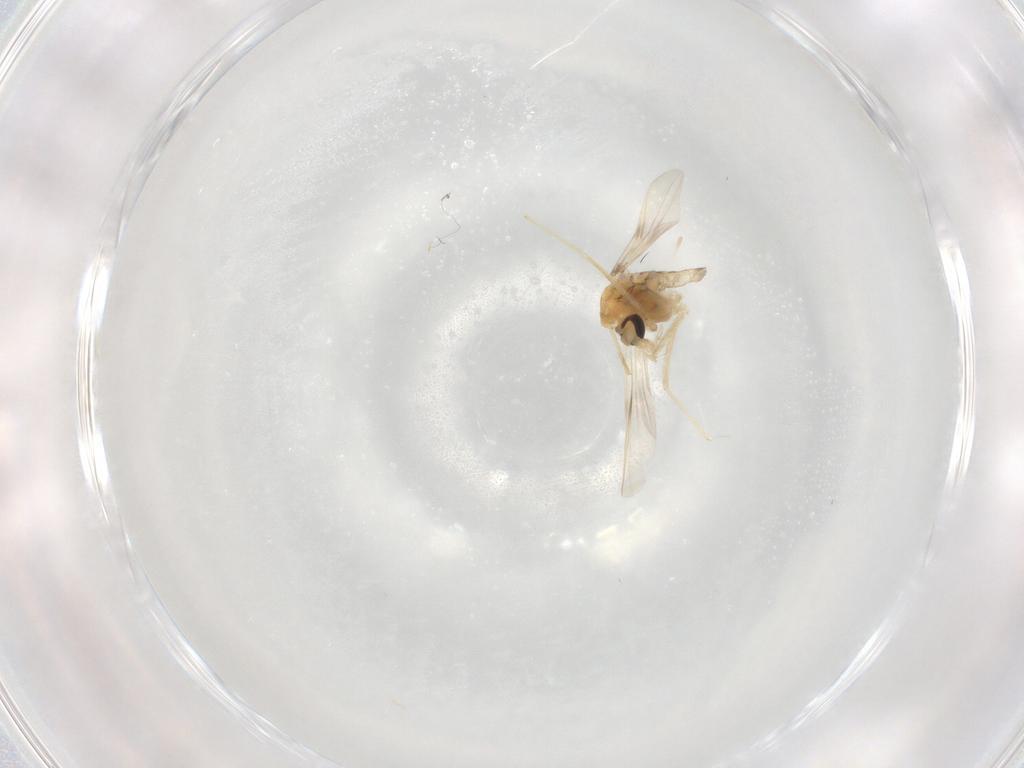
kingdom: Animalia
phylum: Arthropoda
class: Insecta
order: Diptera
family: Chironomidae
